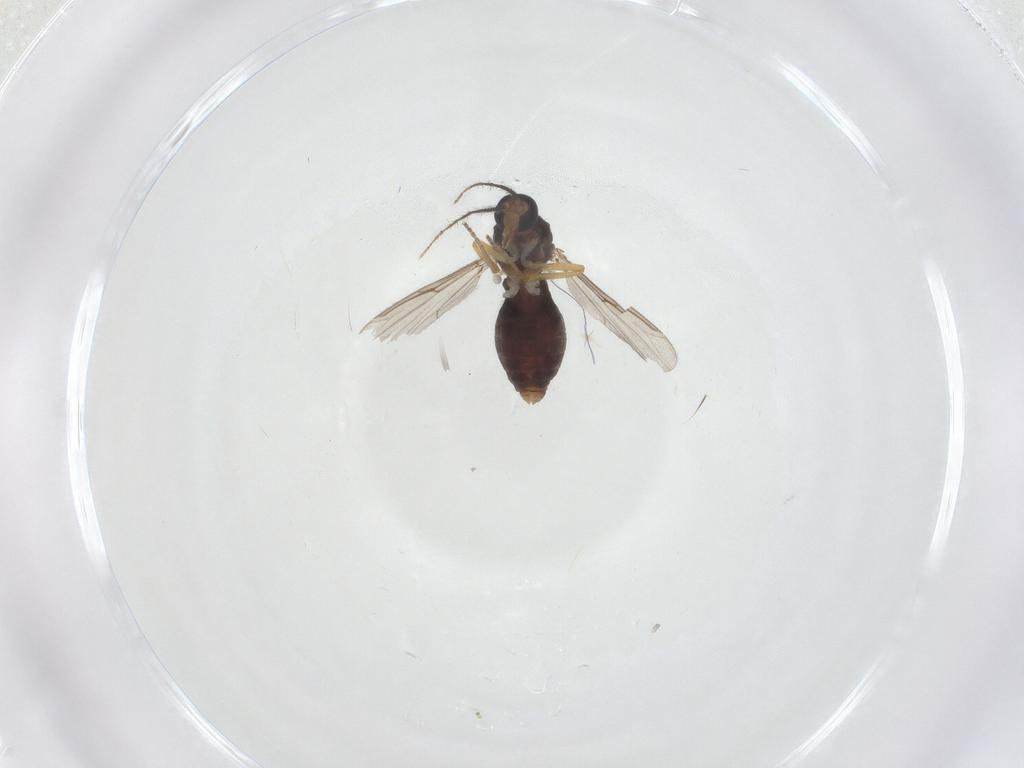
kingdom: Animalia
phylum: Arthropoda
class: Insecta
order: Diptera
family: Ceratopogonidae
